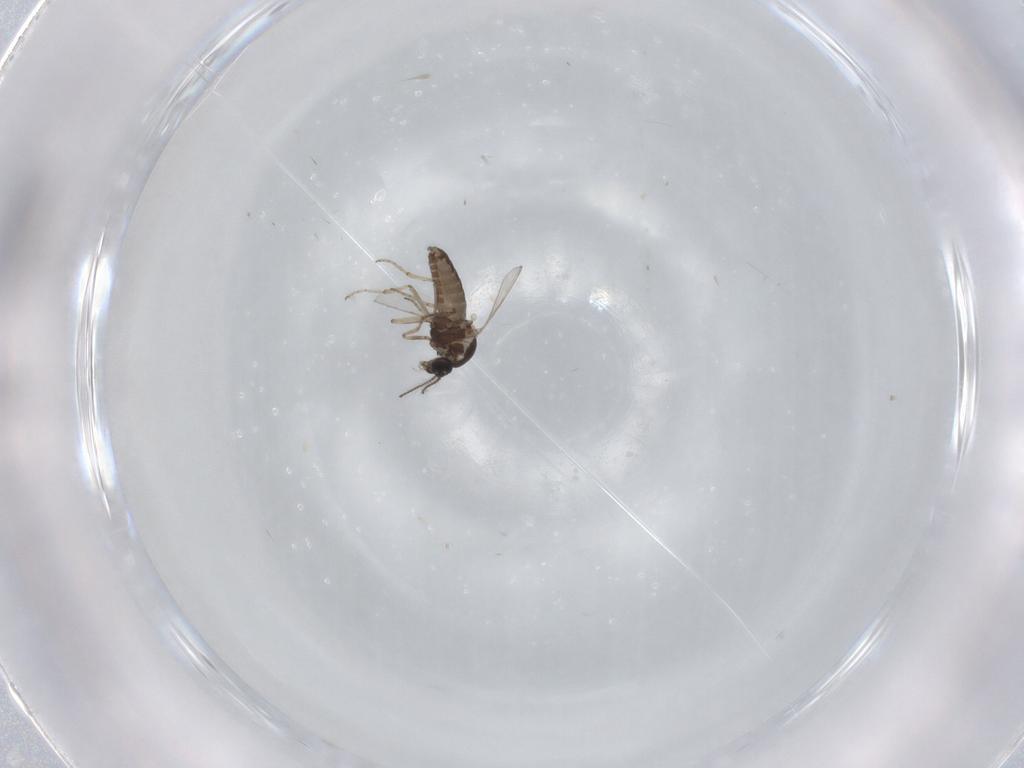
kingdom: Animalia
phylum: Arthropoda
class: Insecta
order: Diptera
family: Ceratopogonidae
